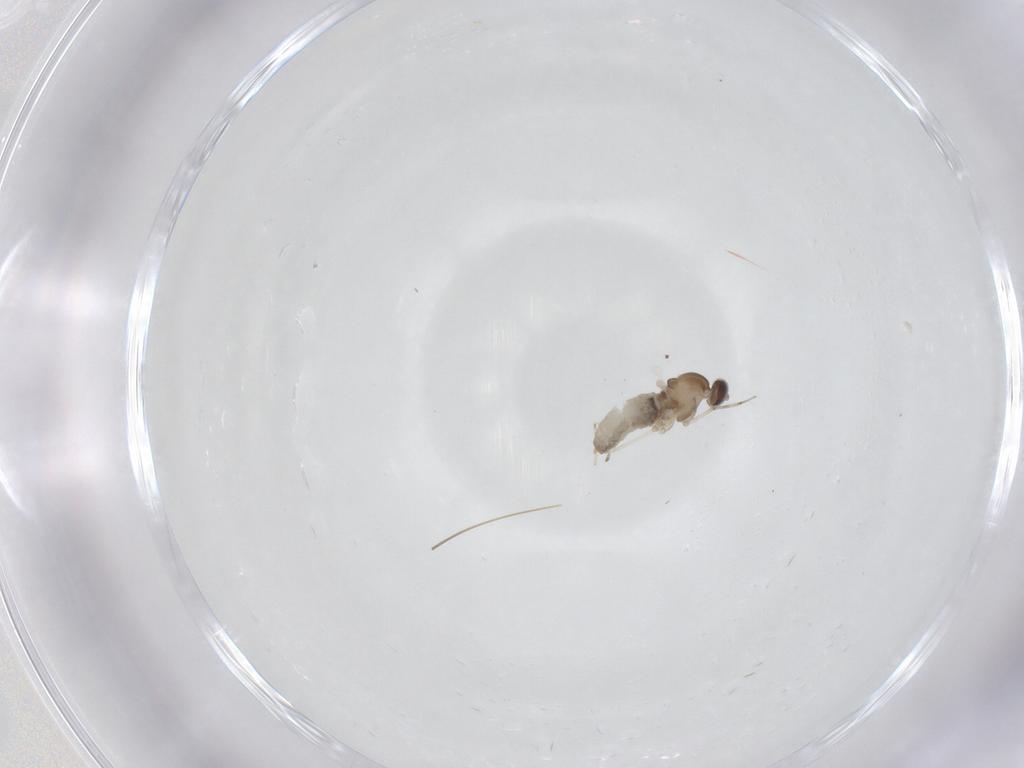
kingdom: Animalia
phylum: Arthropoda
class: Insecta
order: Diptera
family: Cecidomyiidae
